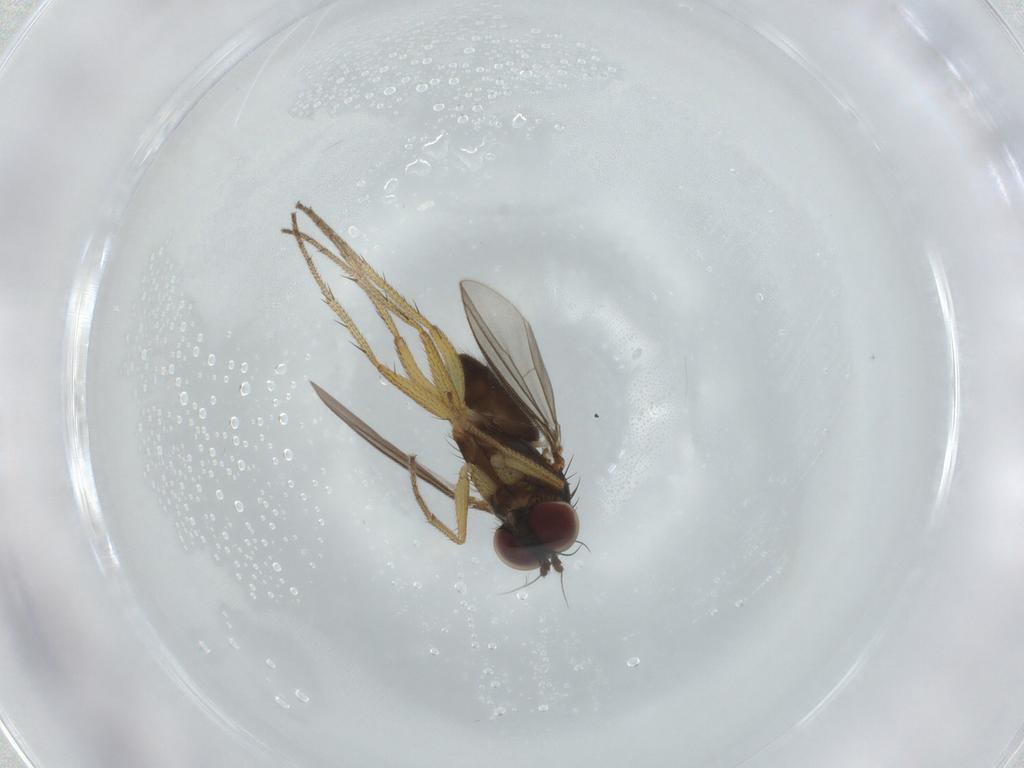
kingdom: Animalia
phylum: Arthropoda
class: Insecta
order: Diptera
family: Dolichopodidae
